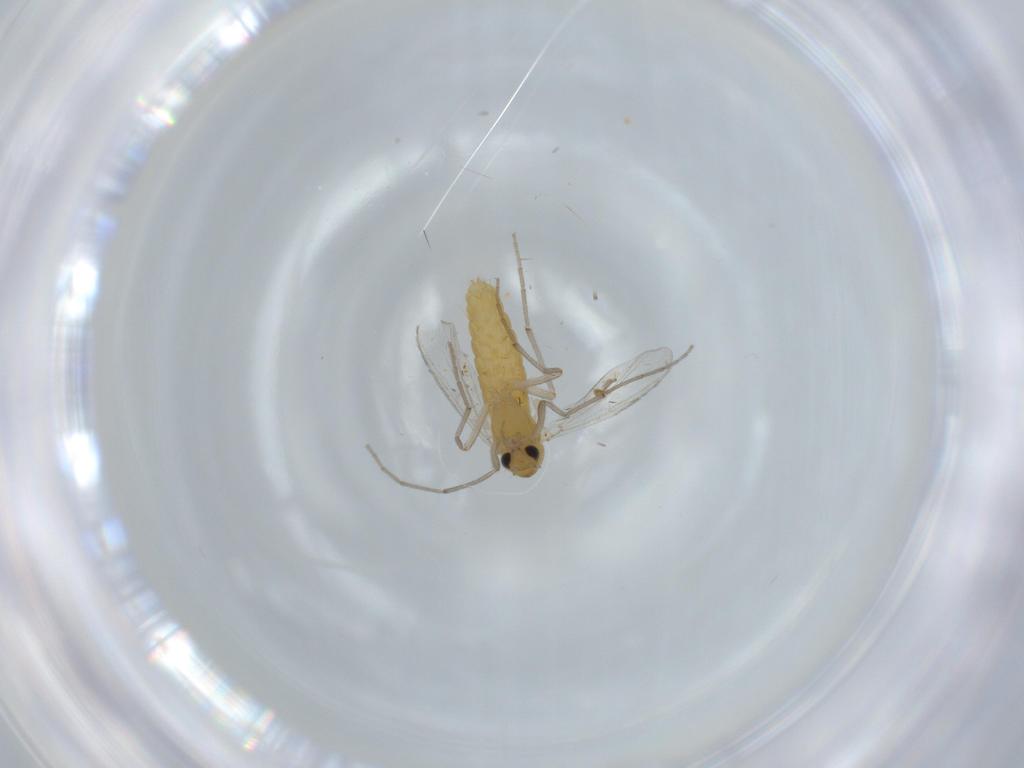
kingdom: Animalia
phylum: Arthropoda
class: Insecta
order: Diptera
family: Chironomidae
